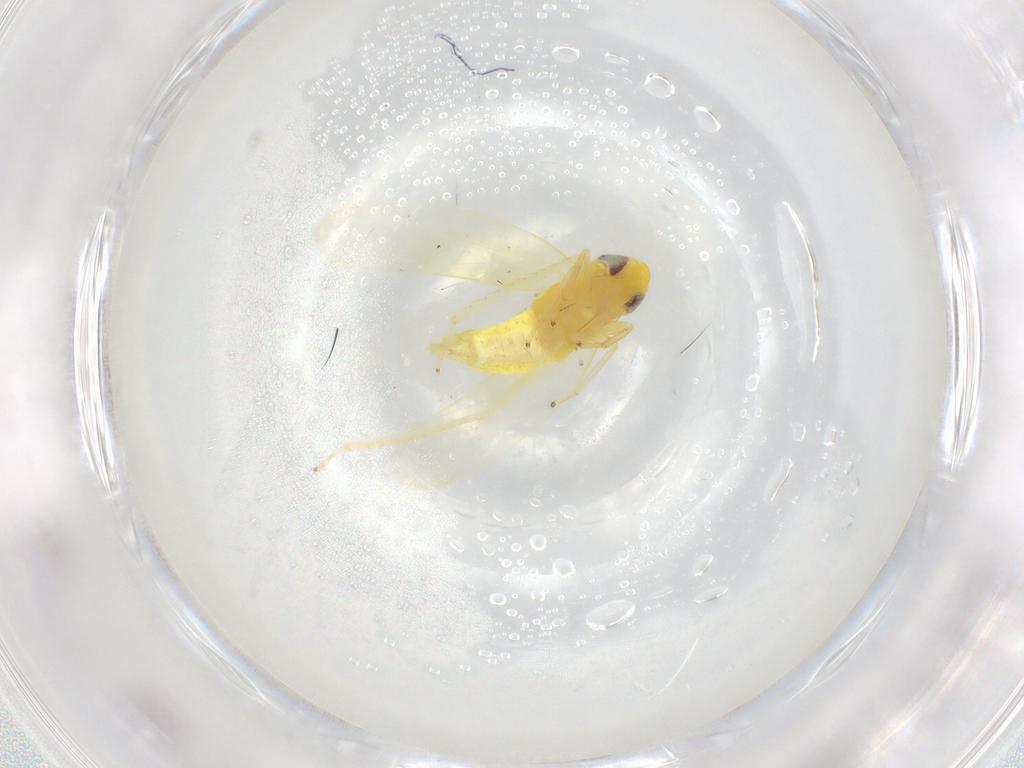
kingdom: Animalia
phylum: Arthropoda
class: Insecta
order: Hemiptera
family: Cicadellidae
